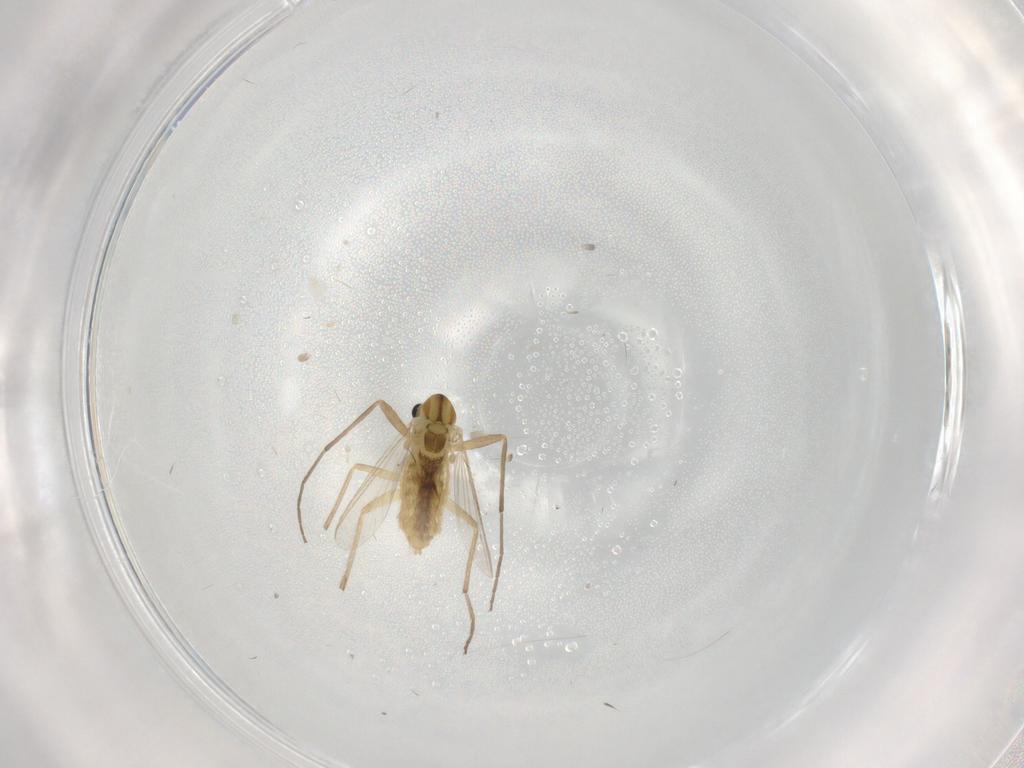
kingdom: Animalia
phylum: Arthropoda
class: Insecta
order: Diptera
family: Chironomidae
